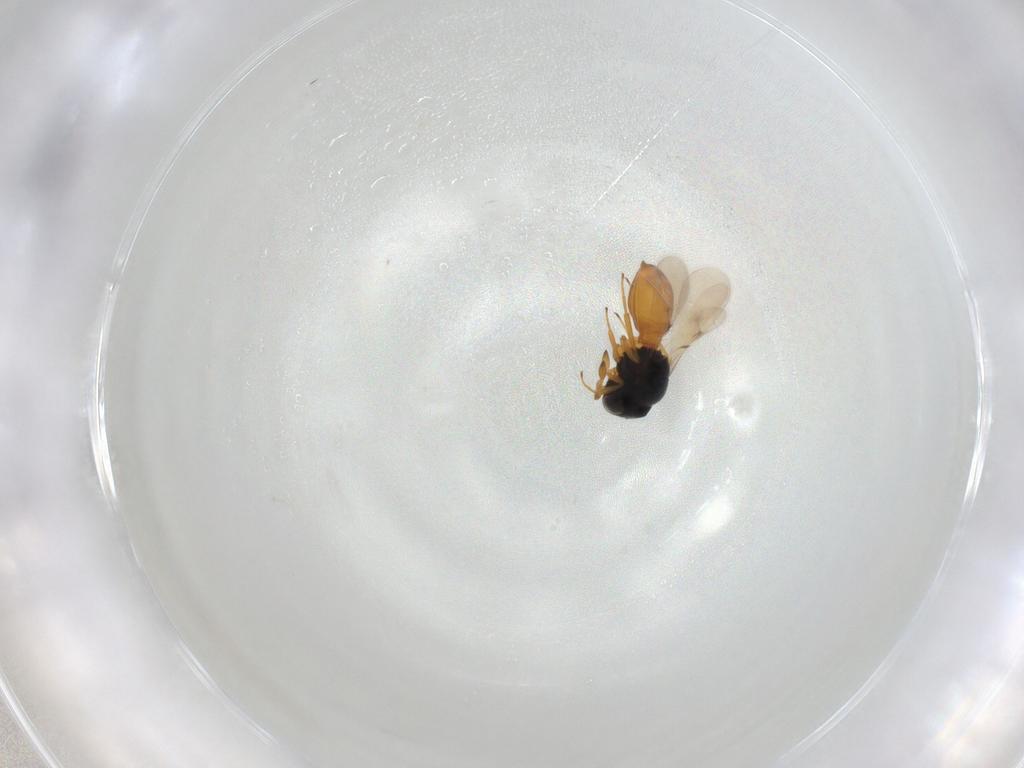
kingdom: Animalia
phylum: Arthropoda
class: Insecta
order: Hymenoptera
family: Scelionidae
